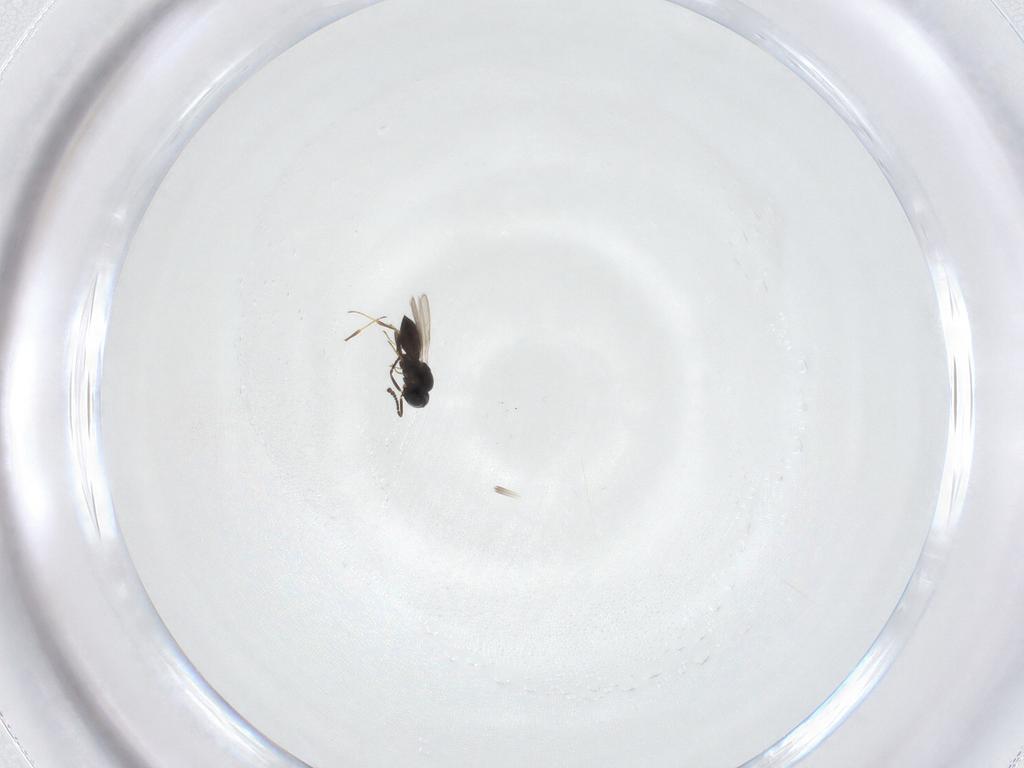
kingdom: Animalia
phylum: Arthropoda
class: Insecta
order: Hymenoptera
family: Scelionidae
